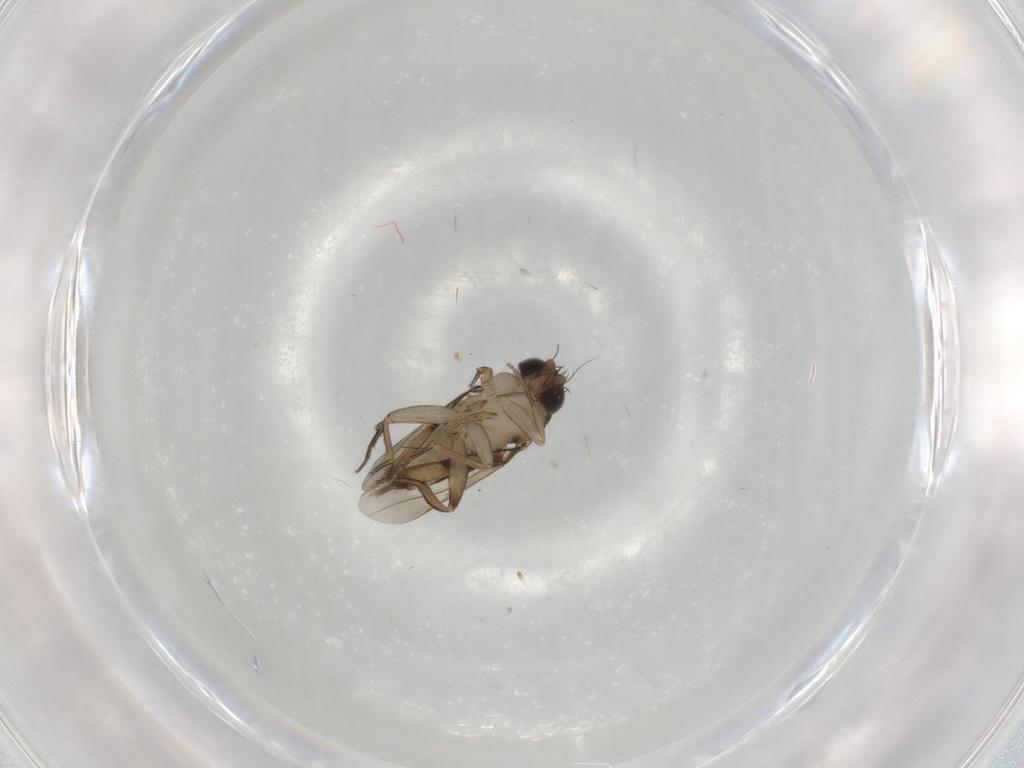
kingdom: Animalia
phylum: Arthropoda
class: Insecta
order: Diptera
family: Phoridae
